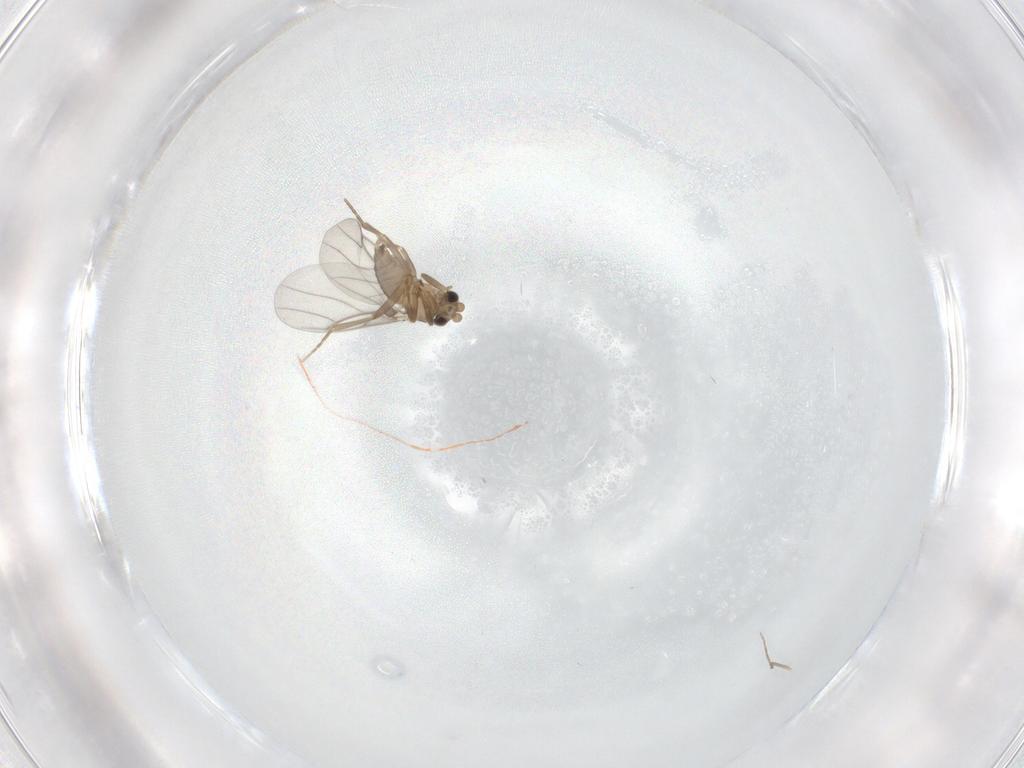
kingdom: Animalia
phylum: Arthropoda
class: Insecta
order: Diptera
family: Chironomidae
